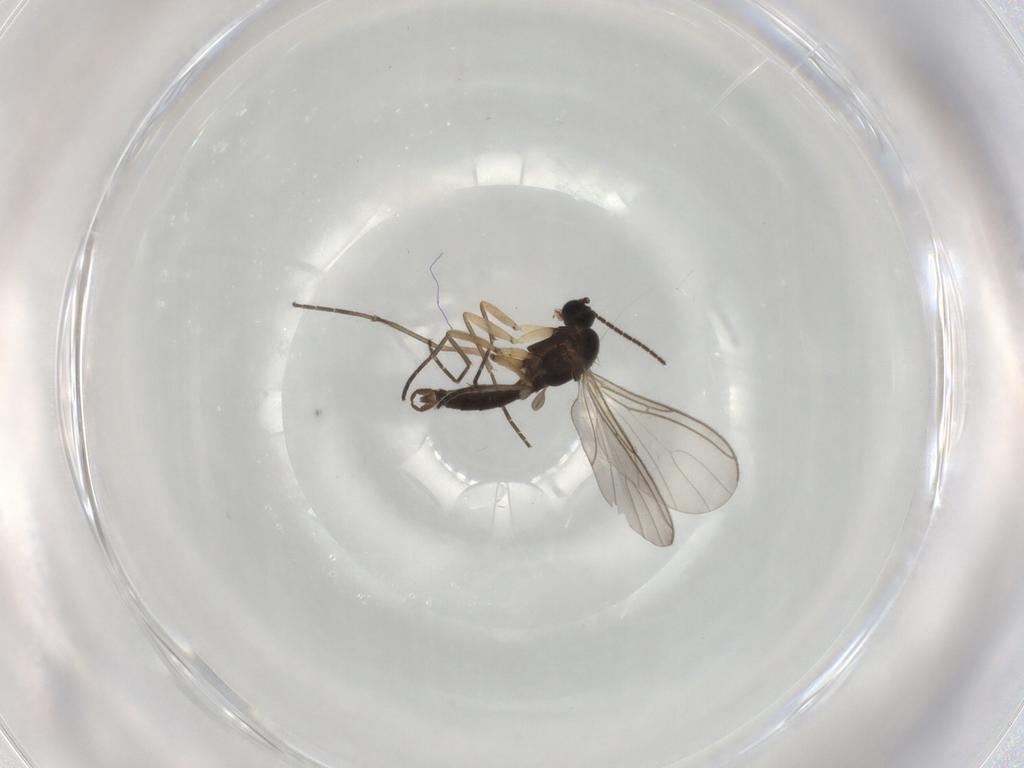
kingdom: Animalia
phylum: Arthropoda
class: Insecta
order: Diptera
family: Sciaridae
